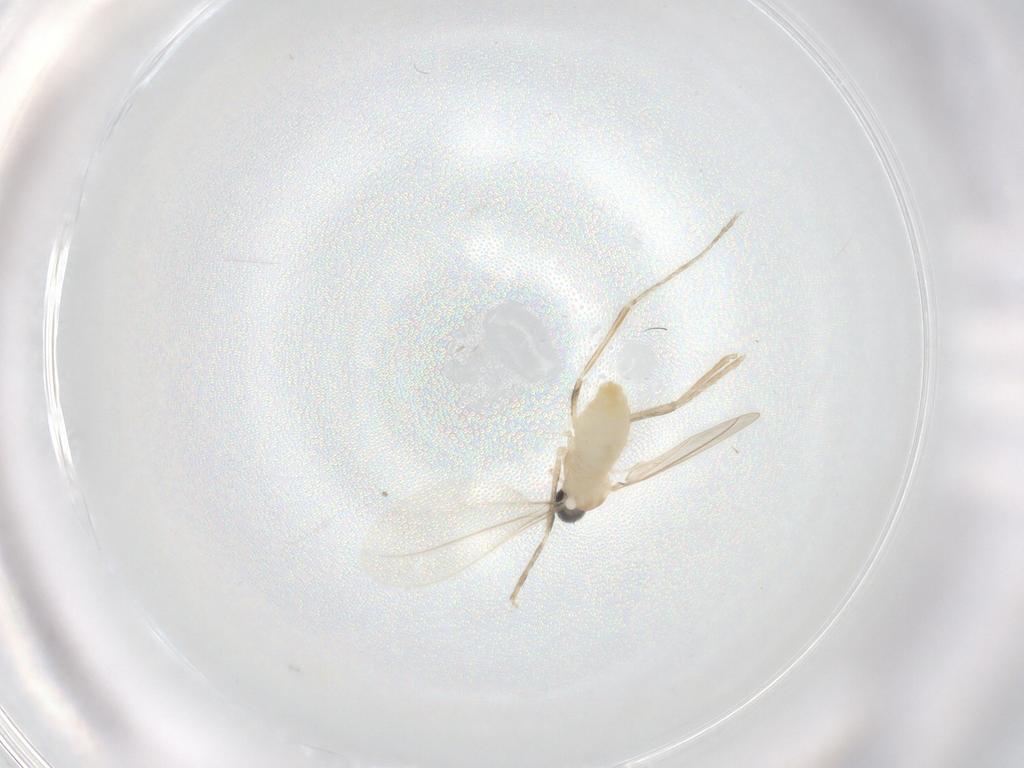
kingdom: Animalia
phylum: Arthropoda
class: Insecta
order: Diptera
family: Cecidomyiidae
